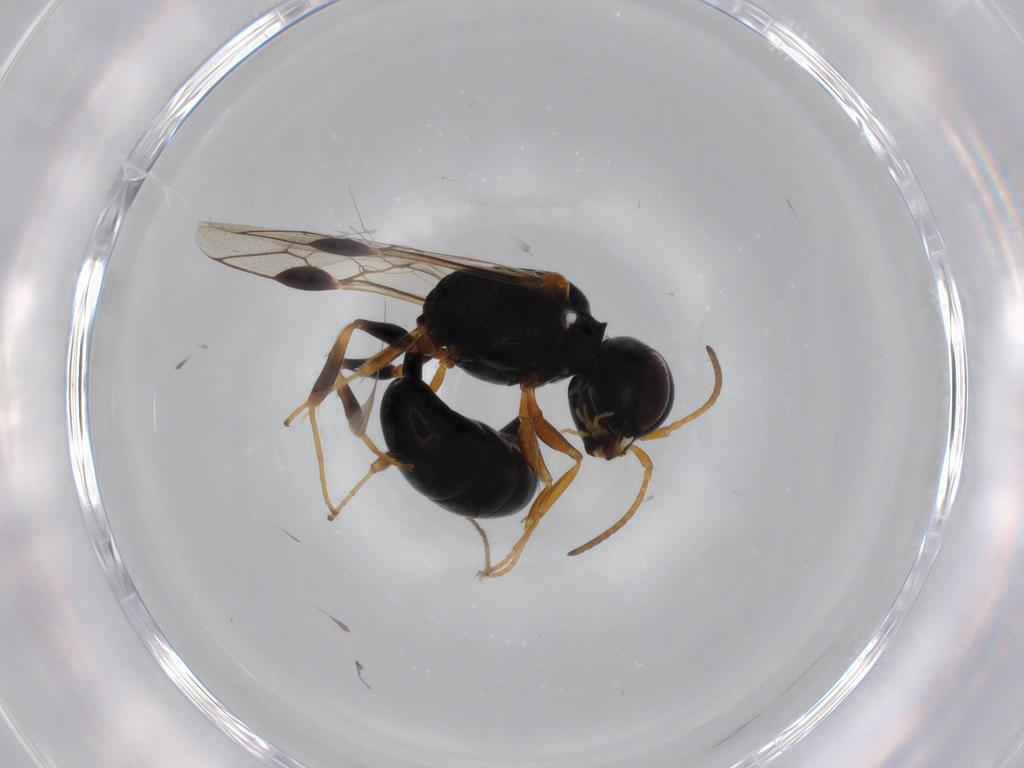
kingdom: Animalia
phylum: Arthropoda
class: Insecta
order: Hymenoptera
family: Crabronidae
